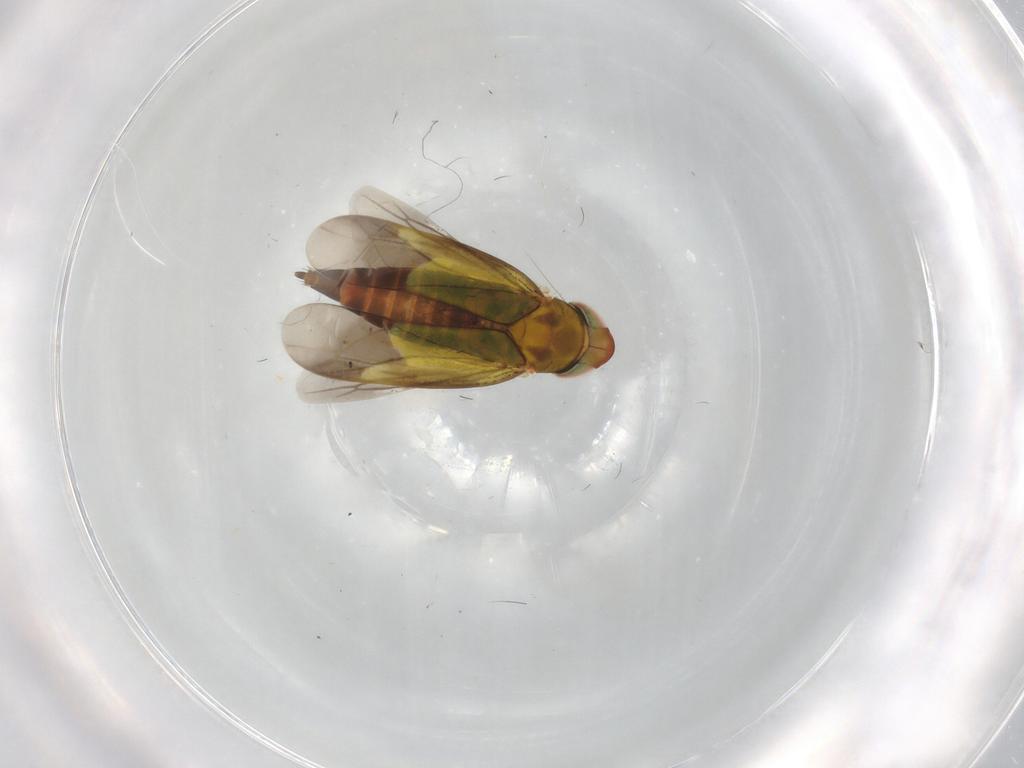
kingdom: Animalia
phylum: Arthropoda
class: Insecta
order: Hemiptera
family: Cicadellidae
